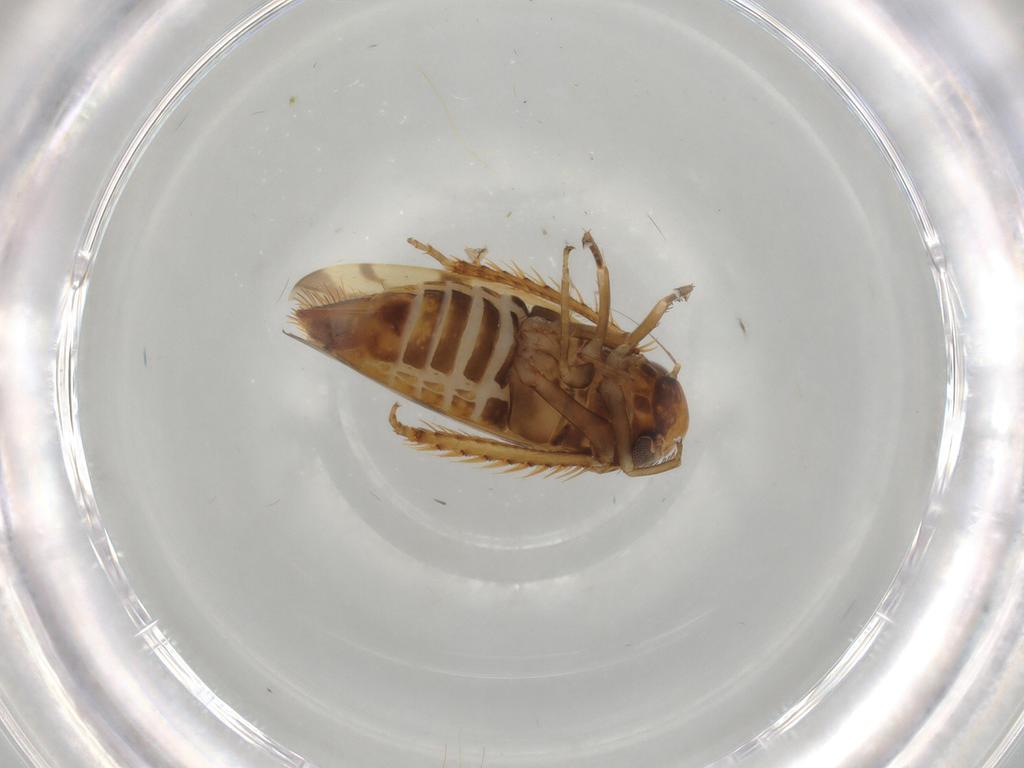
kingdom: Animalia
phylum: Arthropoda
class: Insecta
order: Hemiptera
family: Cicadellidae
